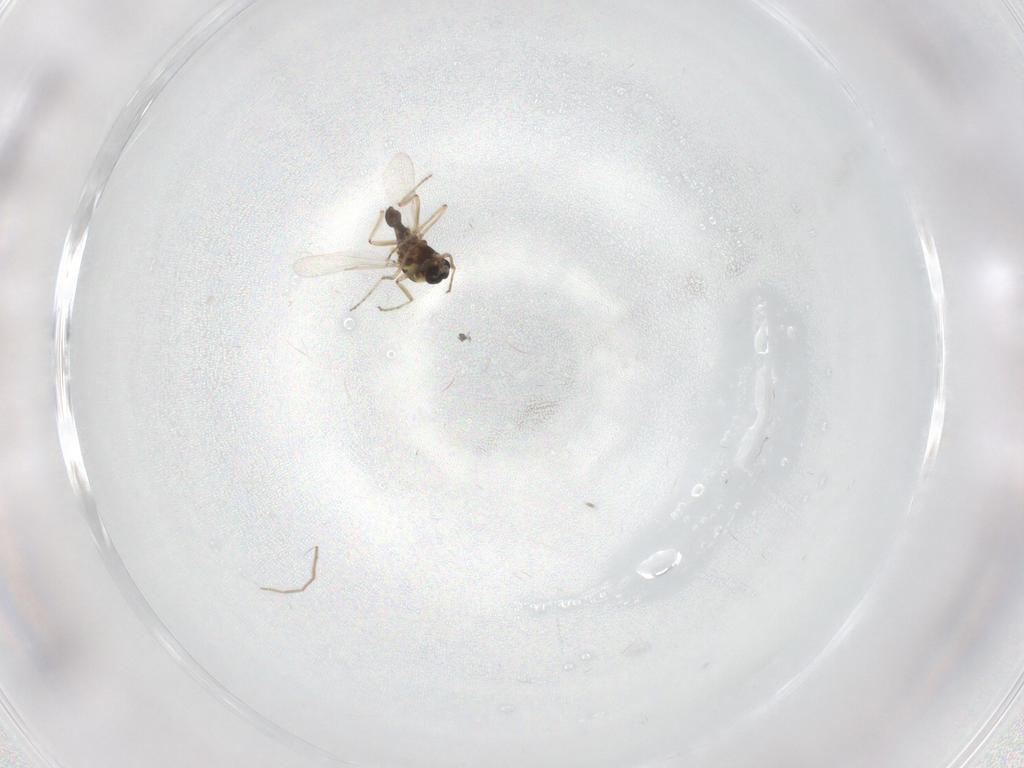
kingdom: Animalia
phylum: Arthropoda
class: Insecta
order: Diptera
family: Ceratopogonidae
